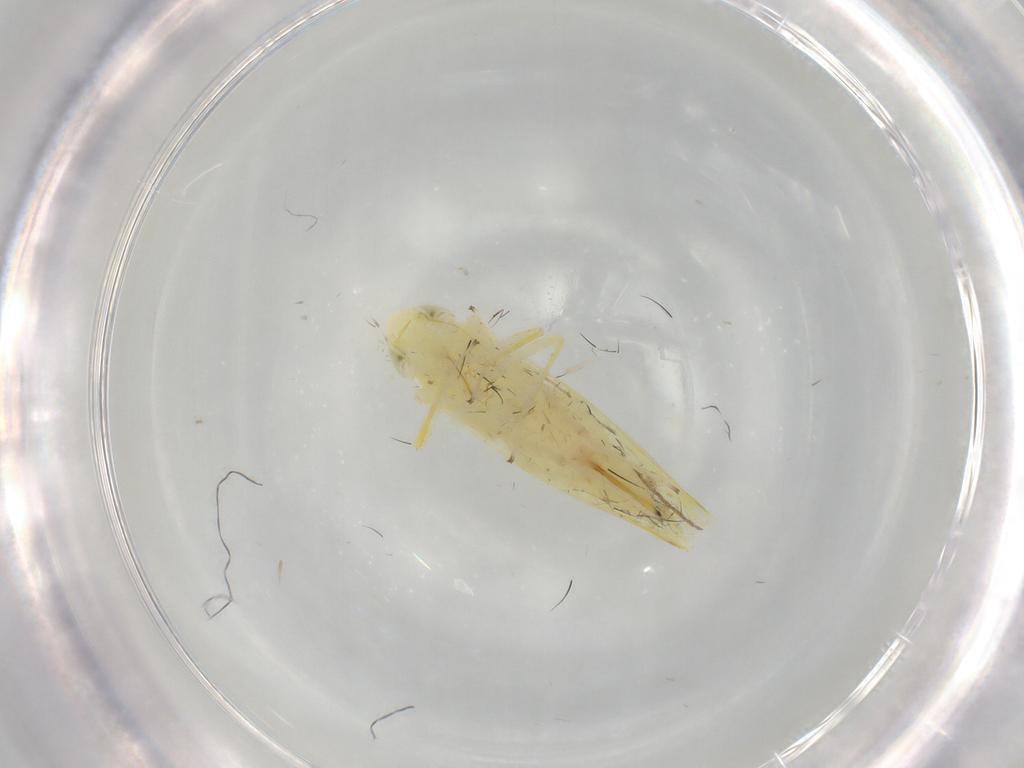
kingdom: Animalia
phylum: Arthropoda
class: Insecta
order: Hemiptera
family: Cicadellidae
